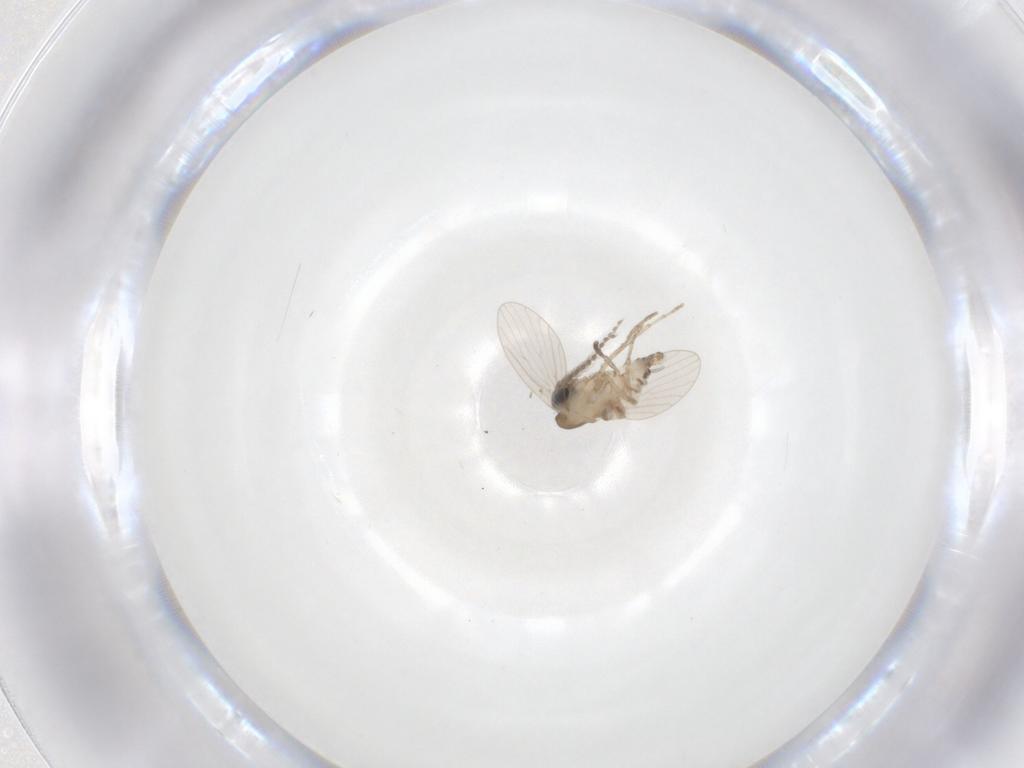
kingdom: Animalia
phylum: Arthropoda
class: Insecta
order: Diptera
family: Psychodidae
